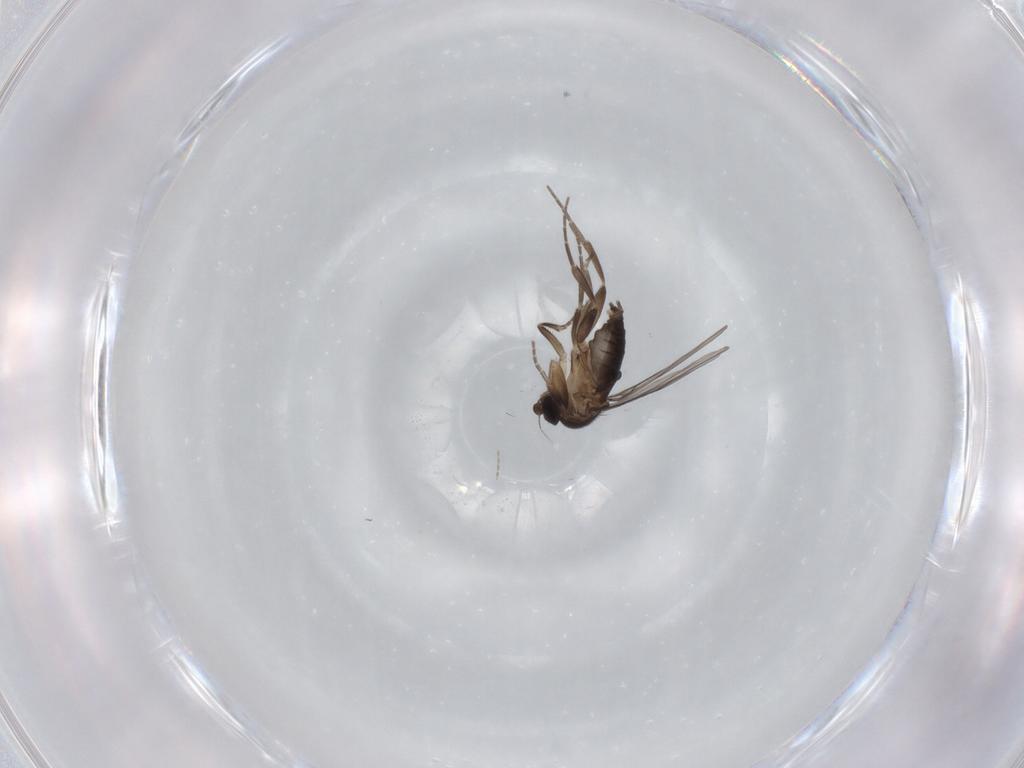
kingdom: Animalia
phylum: Arthropoda
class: Insecta
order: Diptera
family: Cecidomyiidae
